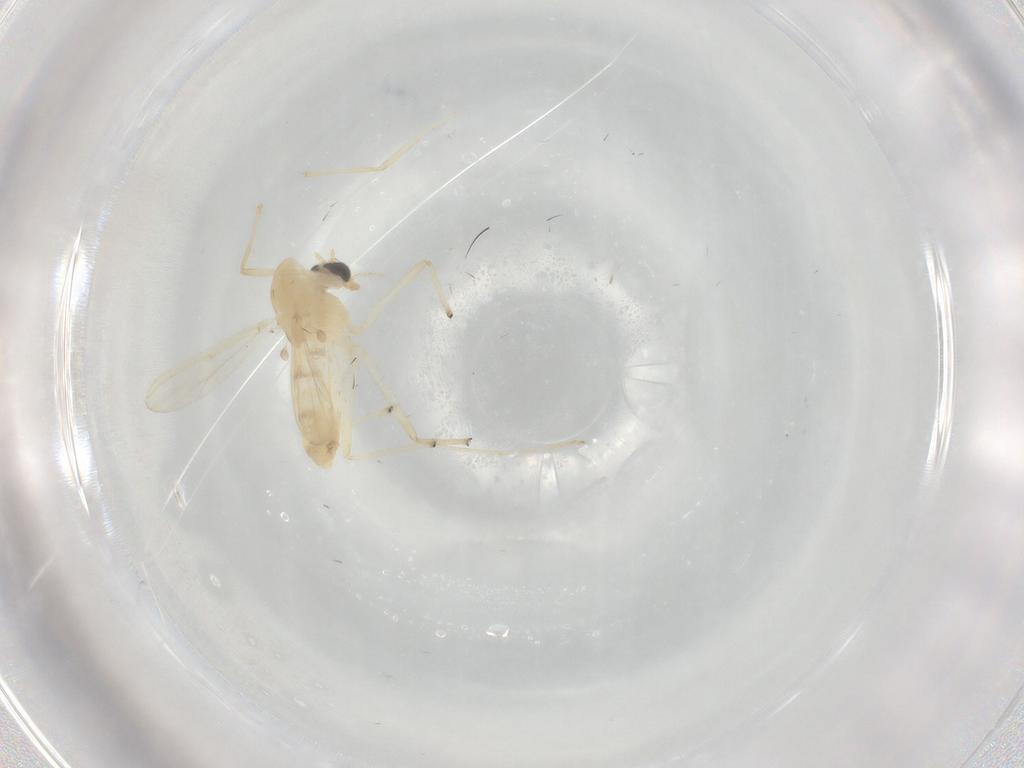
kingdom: Animalia
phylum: Arthropoda
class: Insecta
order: Diptera
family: Chironomidae
